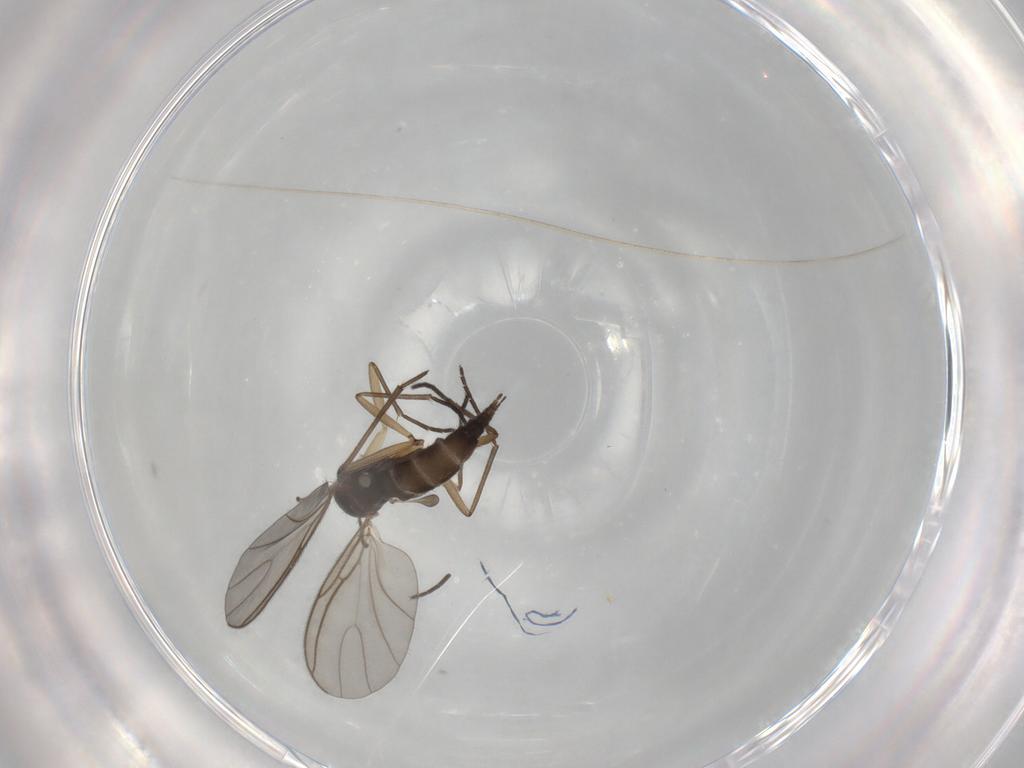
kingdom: Animalia
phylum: Arthropoda
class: Insecta
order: Diptera
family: Sciaridae
